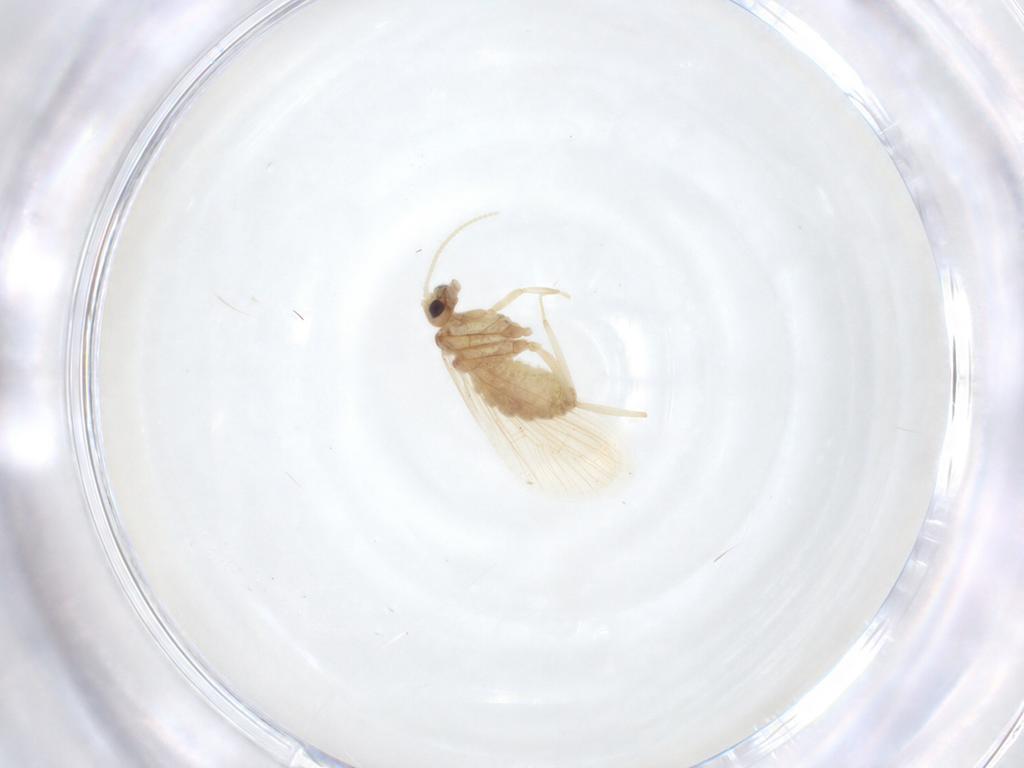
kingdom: Animalia
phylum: Arthropoda
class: Insecta
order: Neuroptera
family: Coniopterygidae
